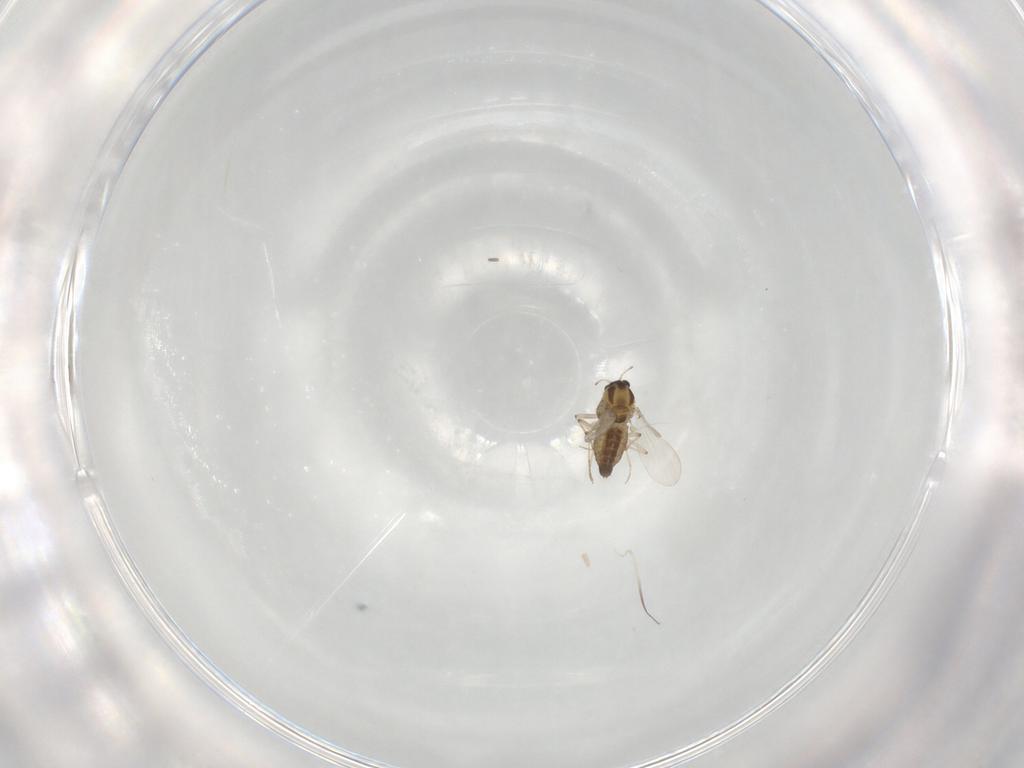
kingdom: Animalia
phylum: Arthropoda
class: Insecta
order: Diptera
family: Chironomidae
